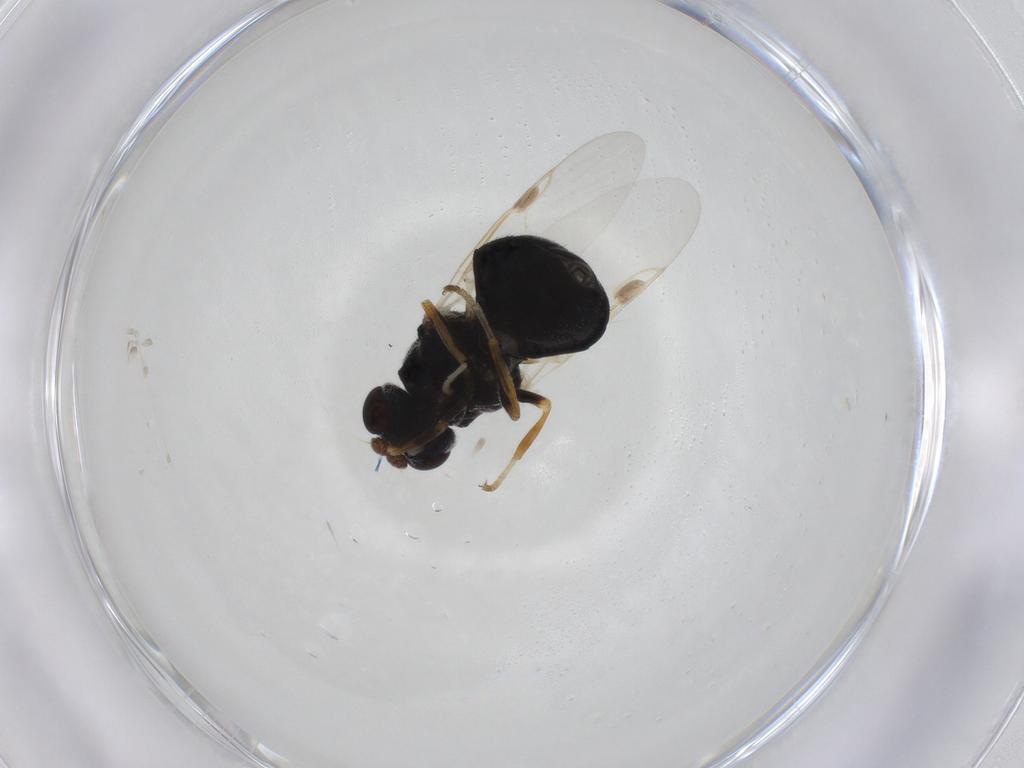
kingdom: Animalia
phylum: Arthropoda
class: Insecta
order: Diptera
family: Stratiomyidae
